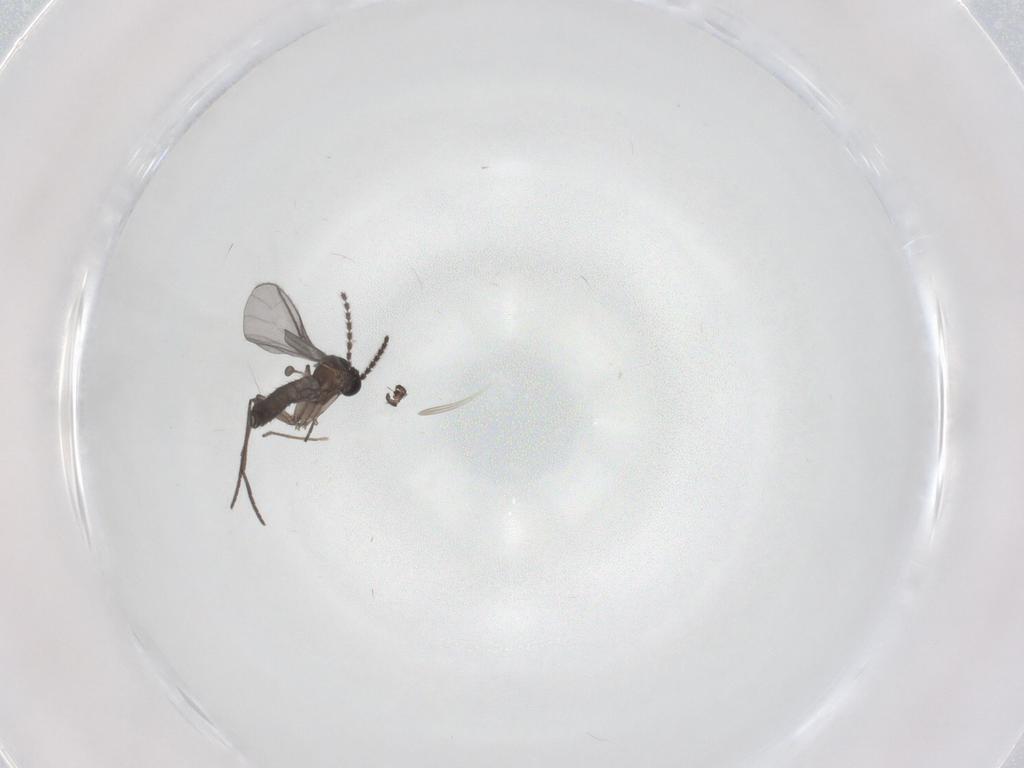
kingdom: Animalia
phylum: Arthropoda
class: Insecta
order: Diptera
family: Chironomidae
